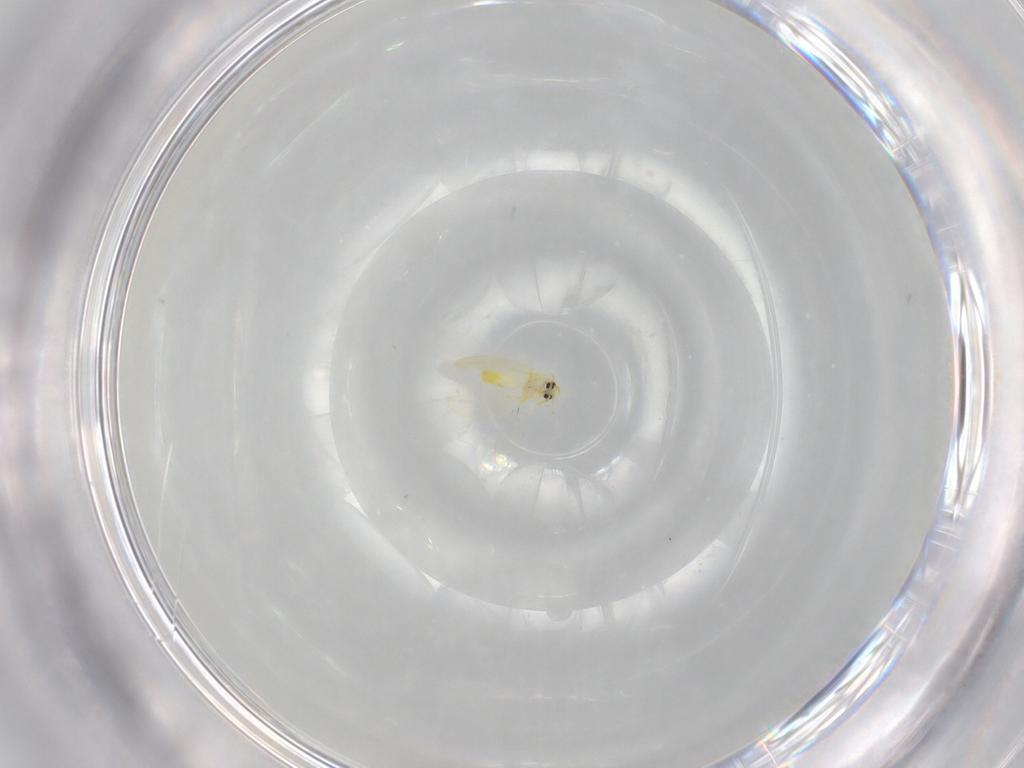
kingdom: Animalia
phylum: Arthropoda
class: Insecta
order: Hemiptera
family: Aleyrodidae
